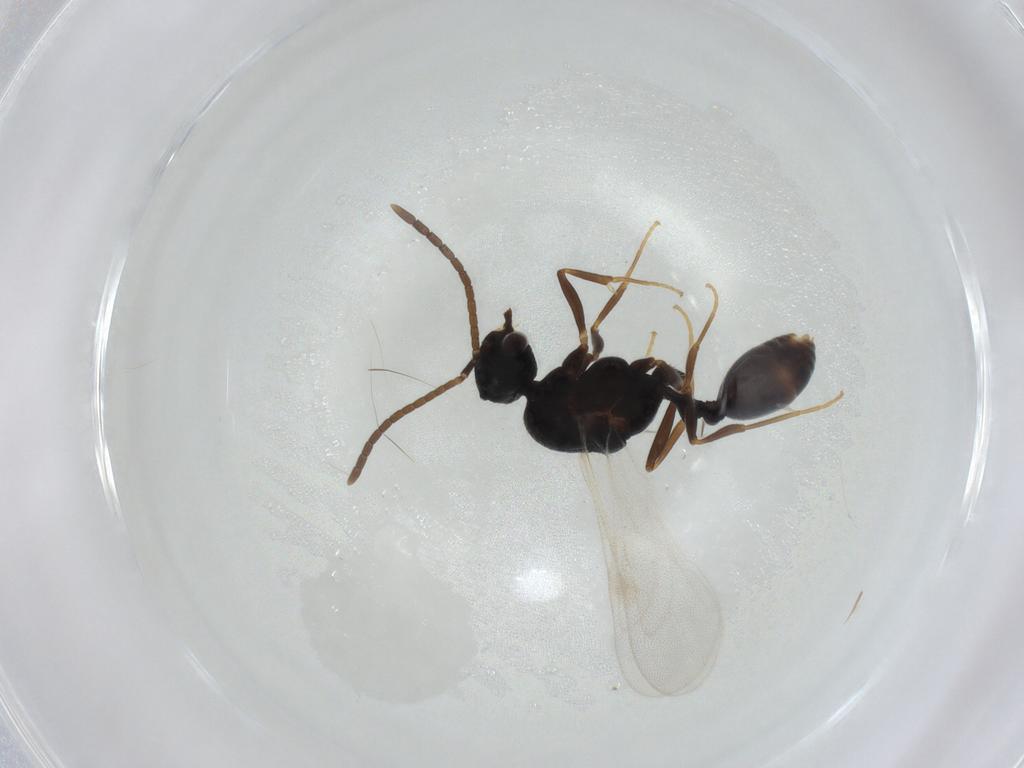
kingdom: Animalia
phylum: Arthropoda
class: Insecta
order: Hymenoptera
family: Formicidae
